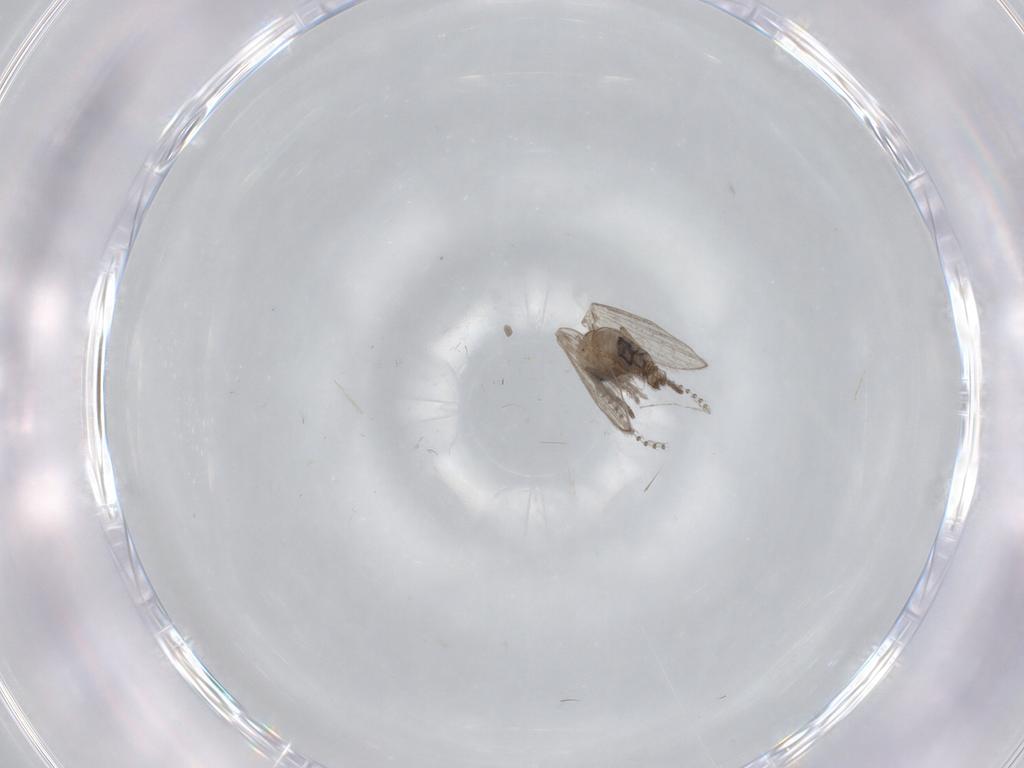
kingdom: Animalia
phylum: Arthropoda
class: Insecta
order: Diptera
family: Psychodidae
